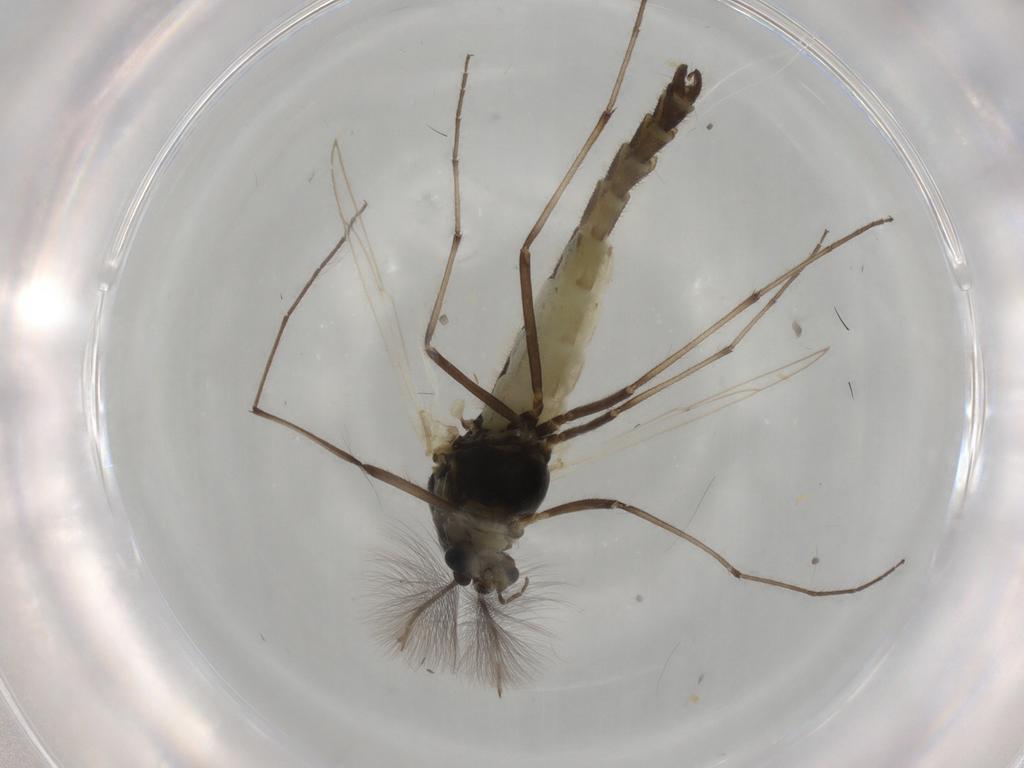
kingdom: Animalia
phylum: Arthropoda
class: Insecta
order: Diptera
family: Chironomidae
